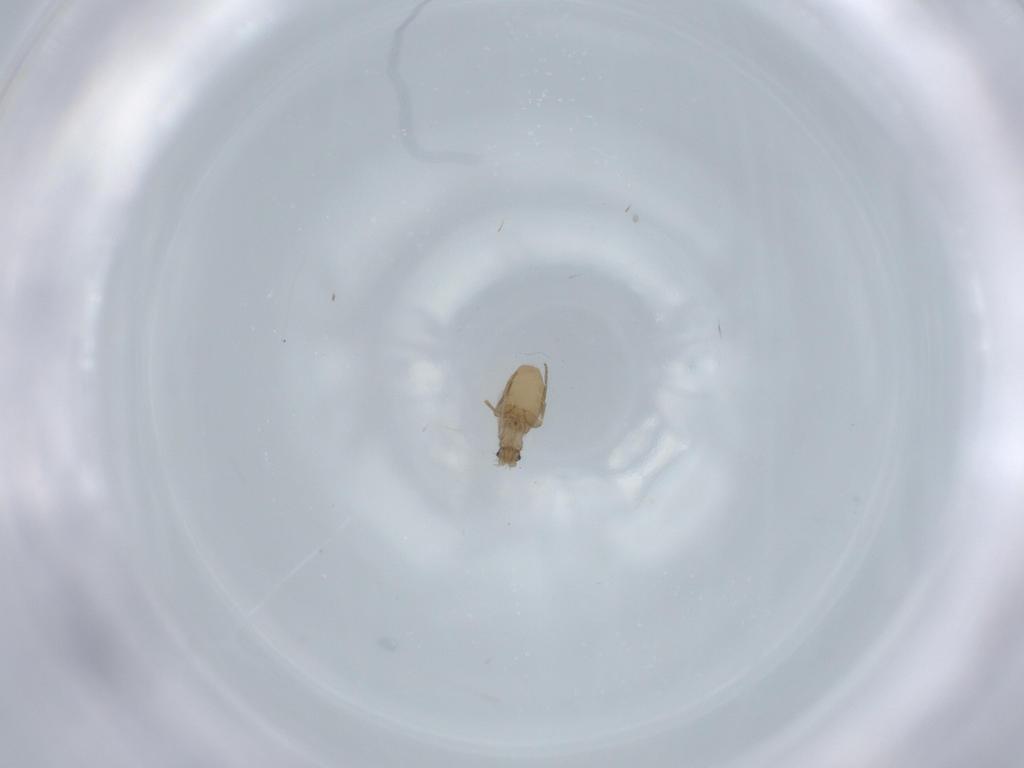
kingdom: Animalia
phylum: Arthropoda
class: Insecta
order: Diptera
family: Phoridae
